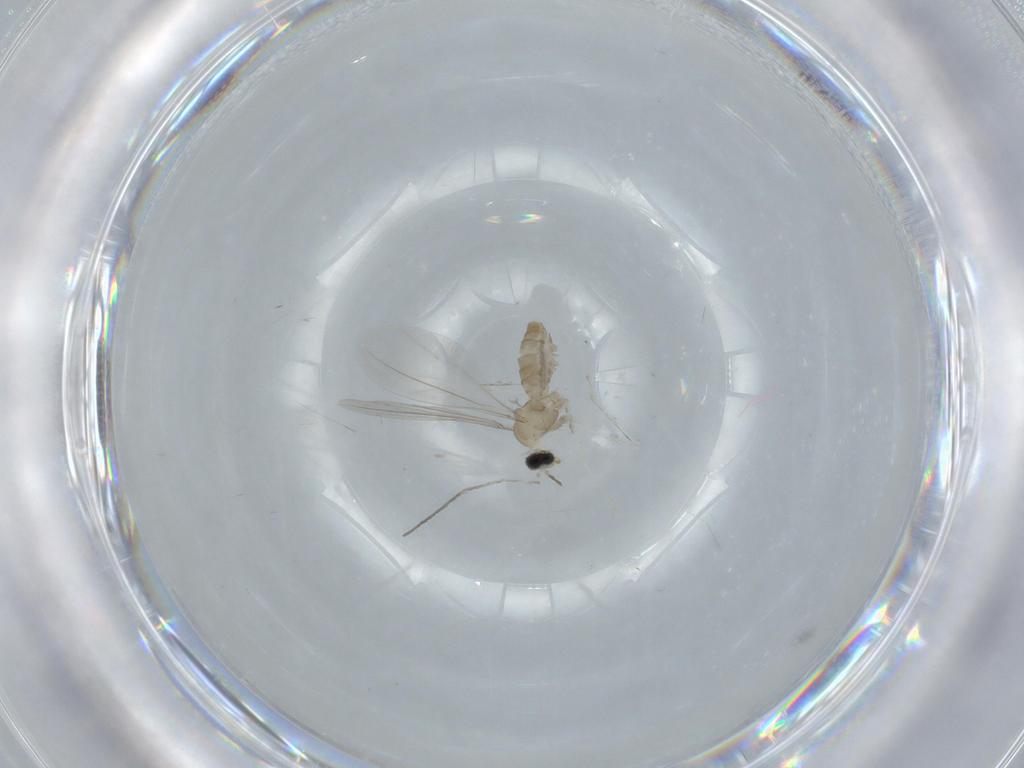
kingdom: Animalia
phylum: Arthropoda
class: Insecta
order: Diptera
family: Cecidomyiidae
